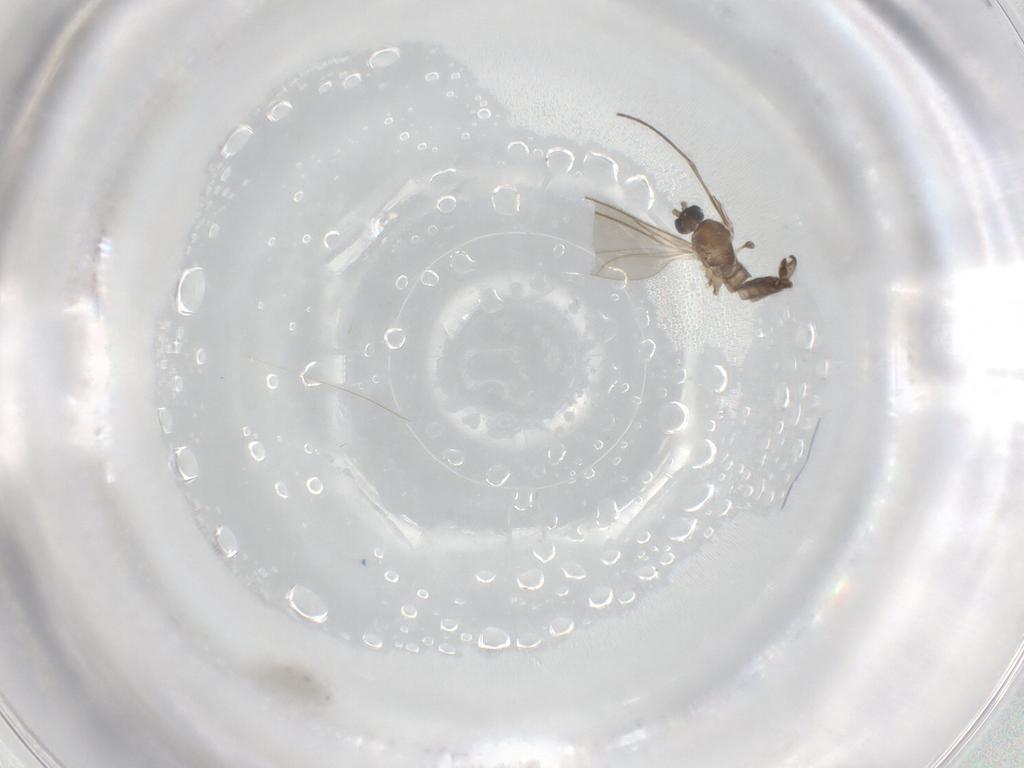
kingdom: Animalia
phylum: Arthropoda
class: Insecta
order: Diptera
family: Sciaridae
